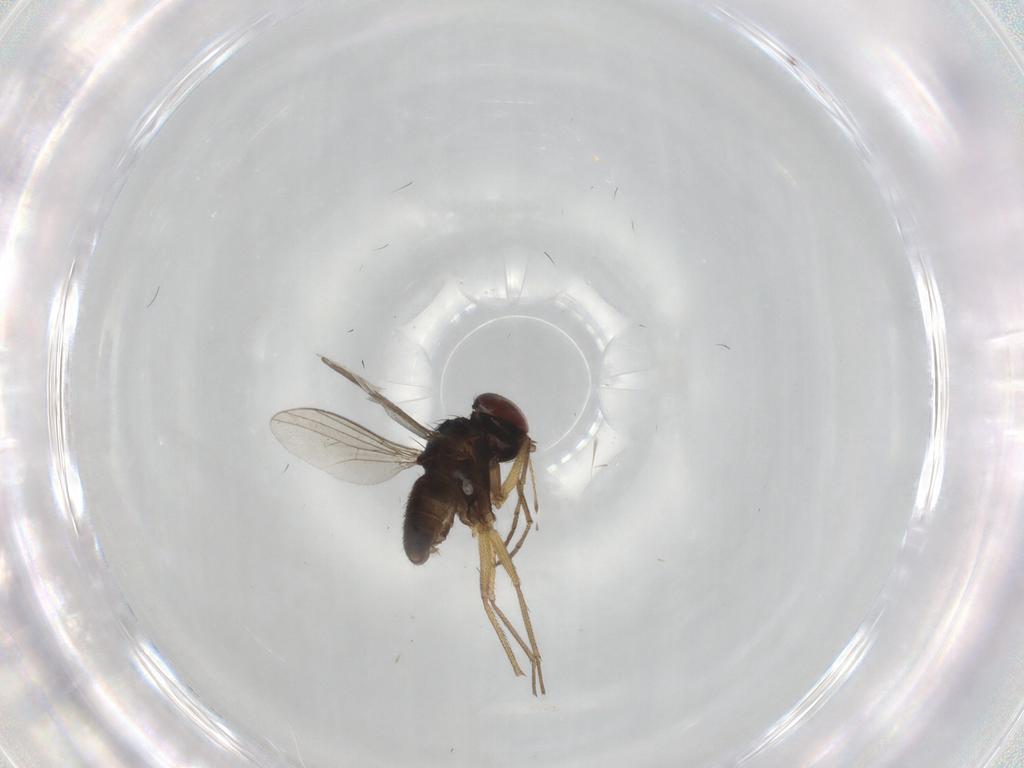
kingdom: Animalia
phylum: Arthropoda
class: Insecta
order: Diptera
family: Dolichopodidae
